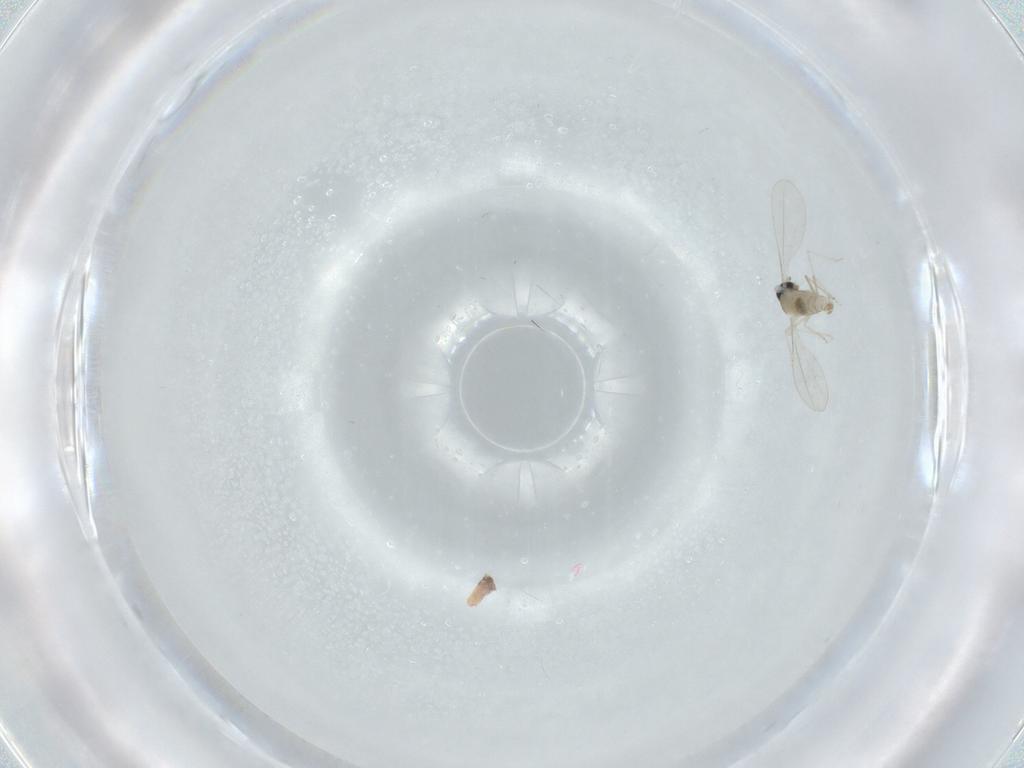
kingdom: Animalia
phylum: Arthropoda
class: Insecta
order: Diptera
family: Cecidomyiidae
